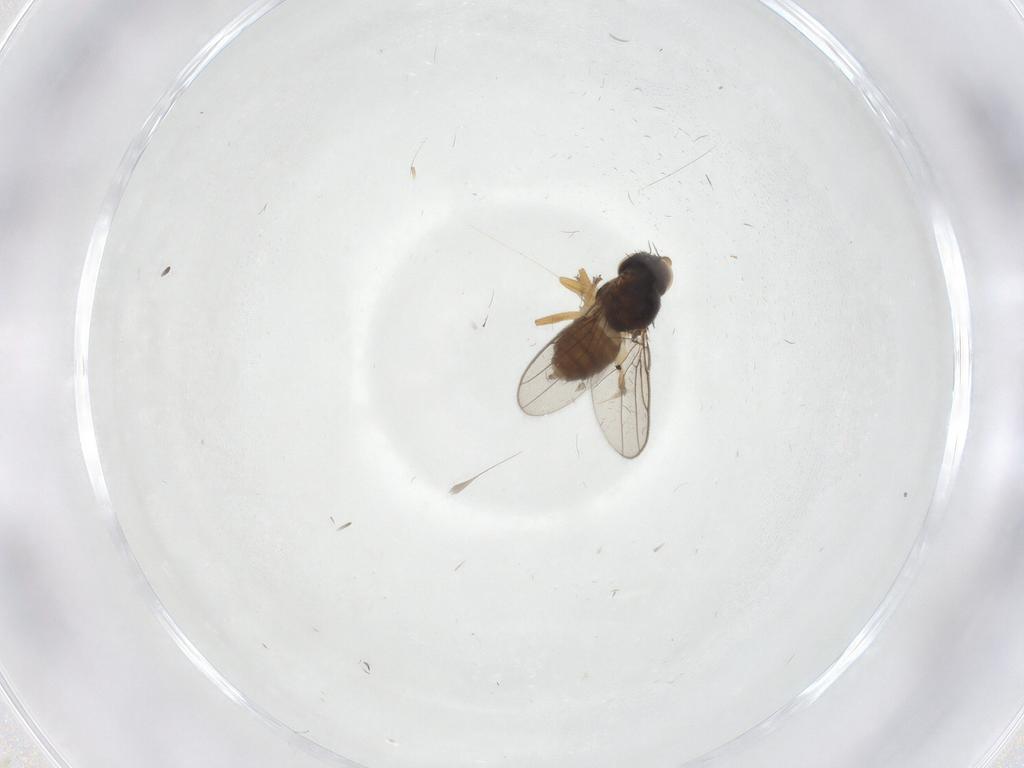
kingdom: Animalia
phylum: Arthropoda
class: Insecta
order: Diptera
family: Chloropidae
